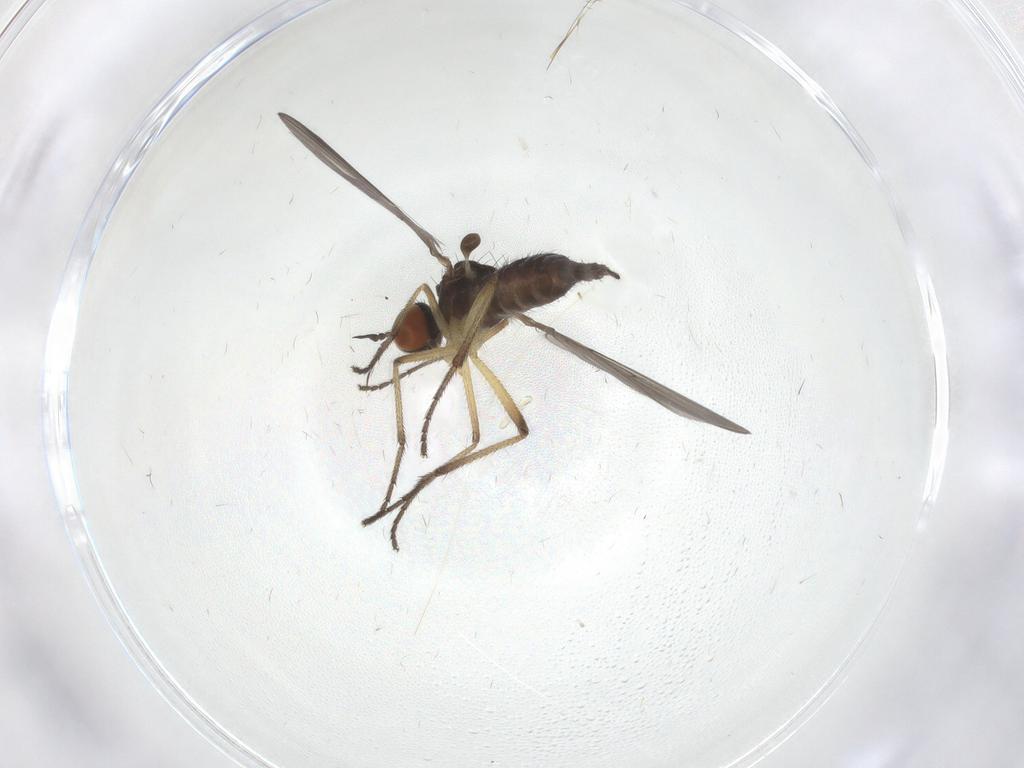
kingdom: Animalia
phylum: Arthropoda
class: Insecta
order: Diptera
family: Empididae
